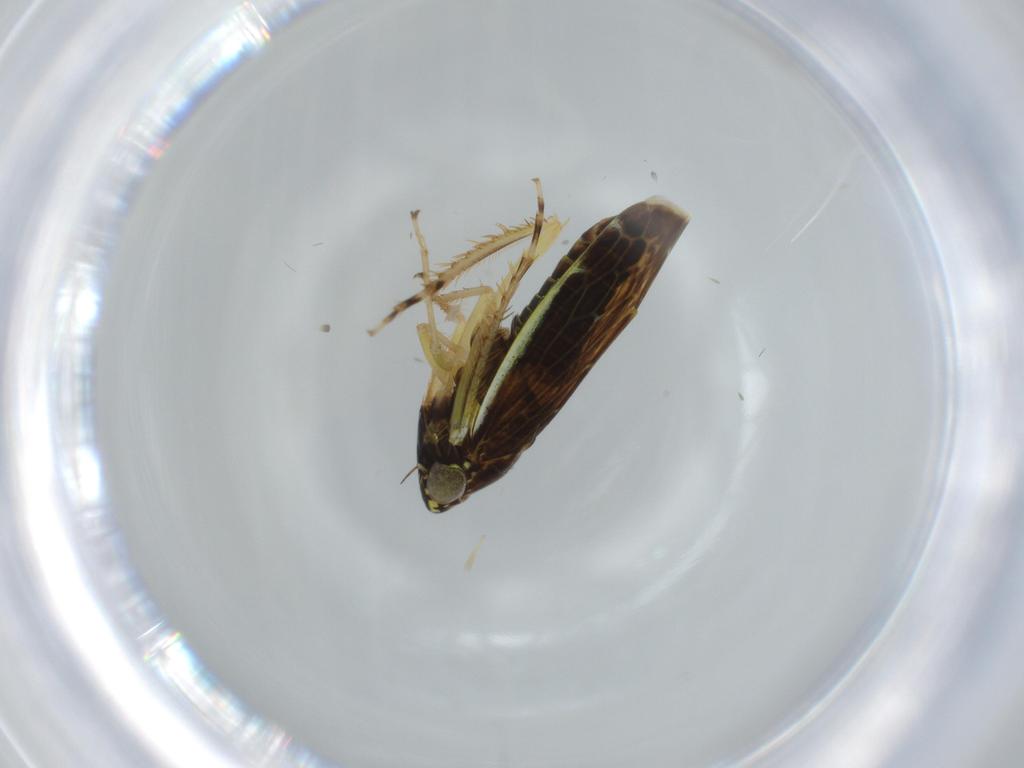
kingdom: Animalia
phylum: Arthropoda
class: Insecta
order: Hemiptera
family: Cicadellidae
